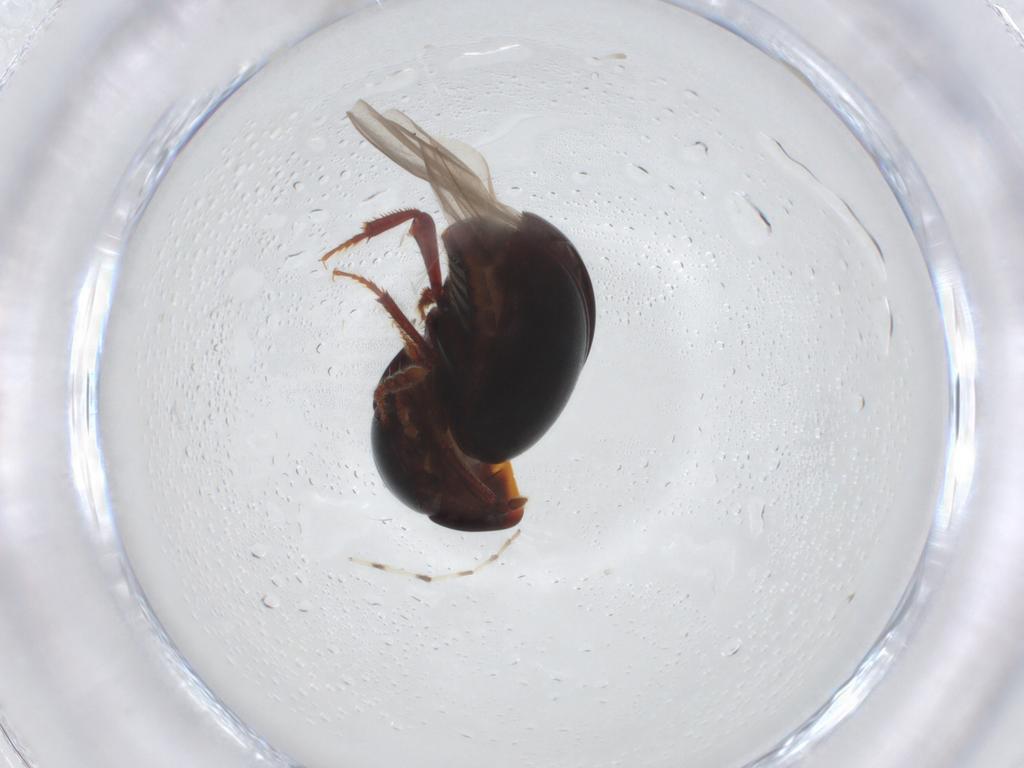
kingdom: Animalia
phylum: Arthropoda
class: Insecta
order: Coleoptera
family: Leiodidae
